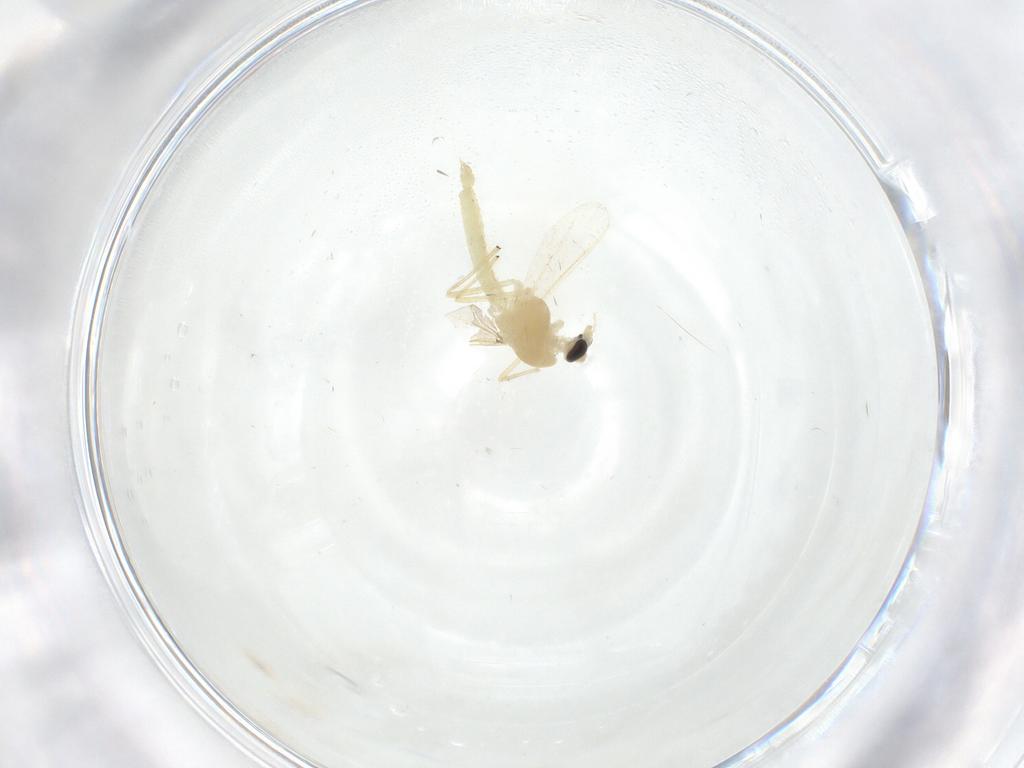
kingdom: Animalia
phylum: Arthropoda
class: Insecta
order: Diptera
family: Chironomidae
